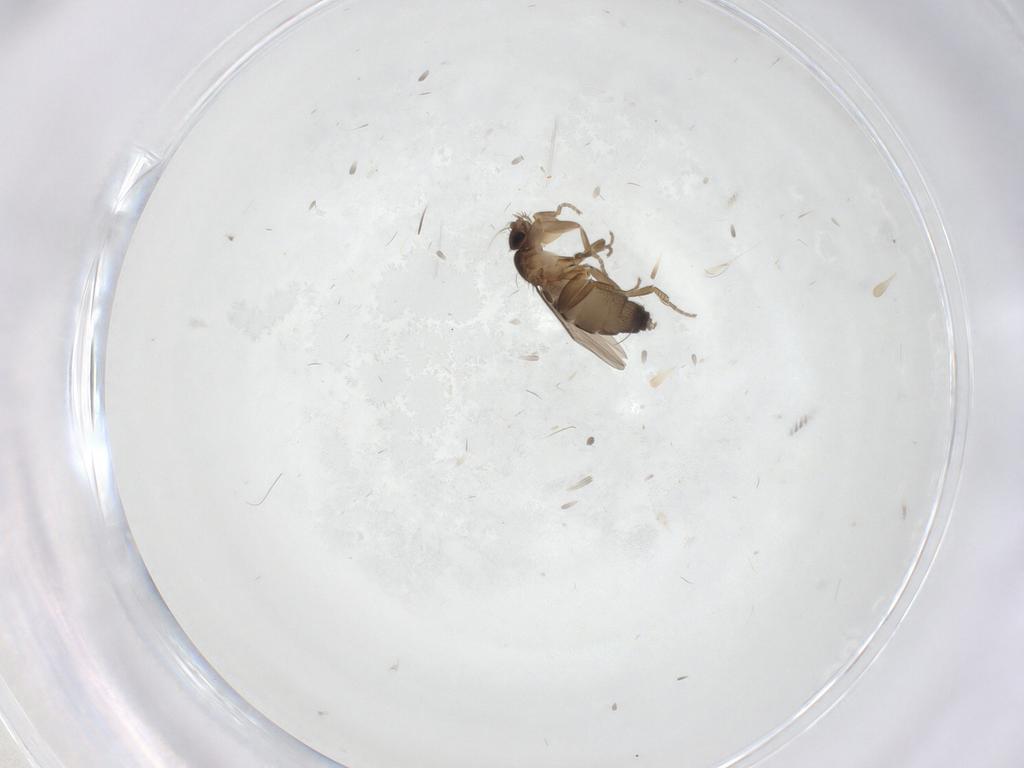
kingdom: Animalia
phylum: Arthropoda
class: Insecta
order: Diptera
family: Phoridae
